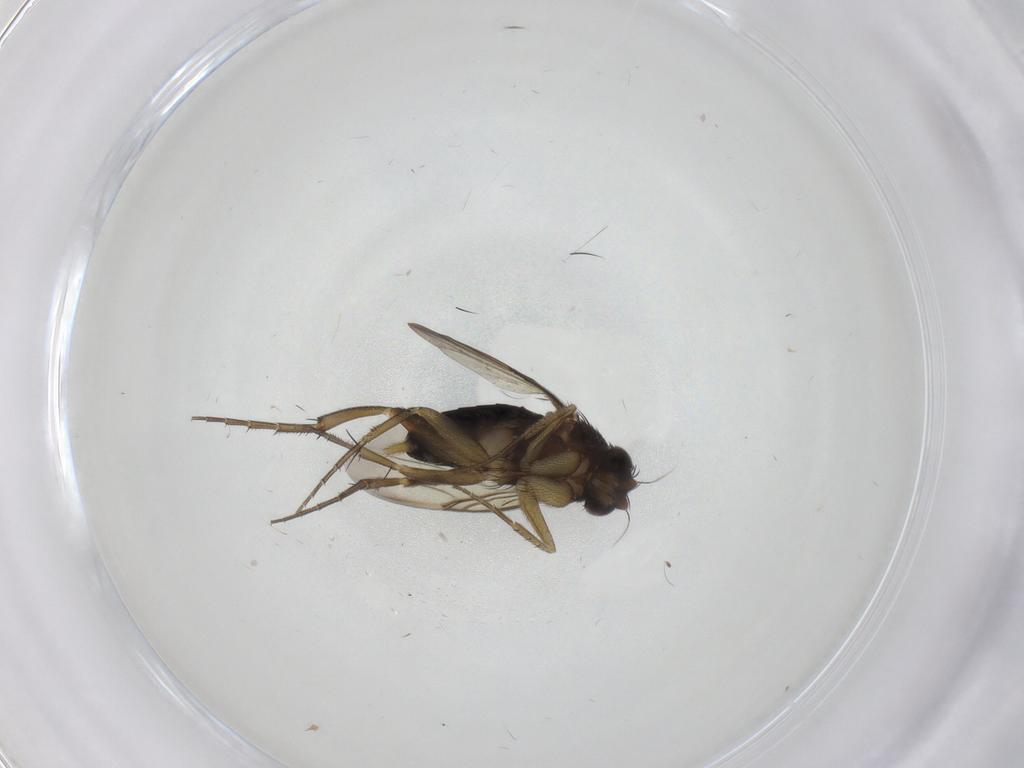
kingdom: Animalia
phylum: Arthropoda
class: Insecta
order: Diptera
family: Phoridae
